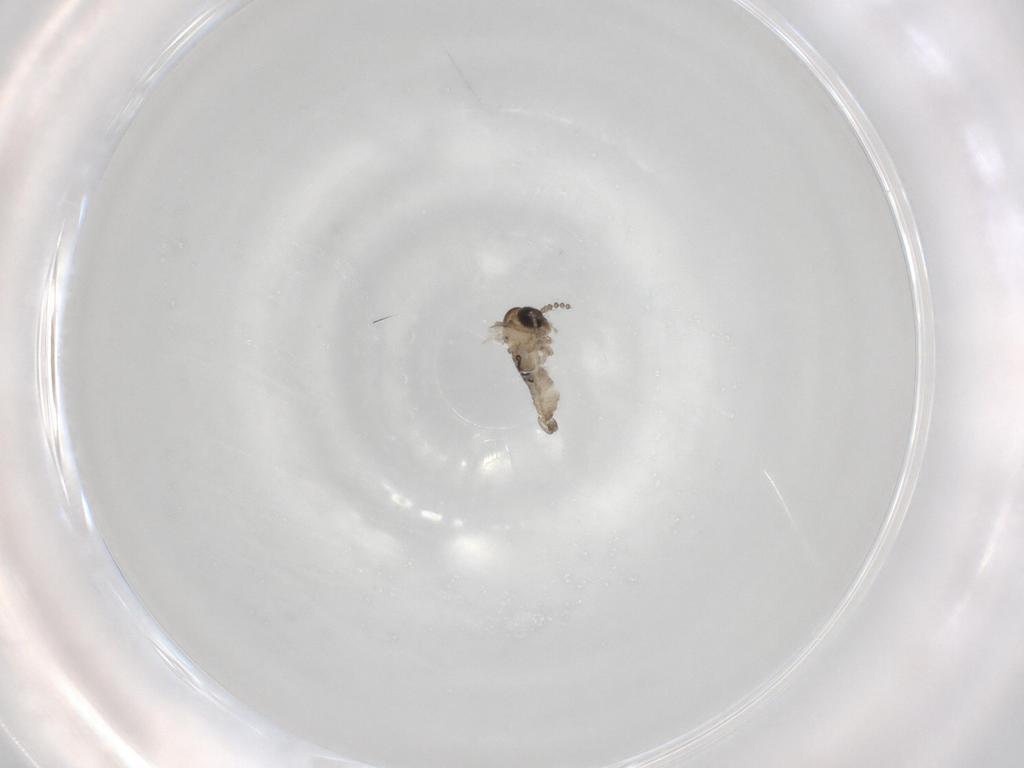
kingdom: Animalia
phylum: Arthropoda
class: Insecta
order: Diptera
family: Psychodidae
